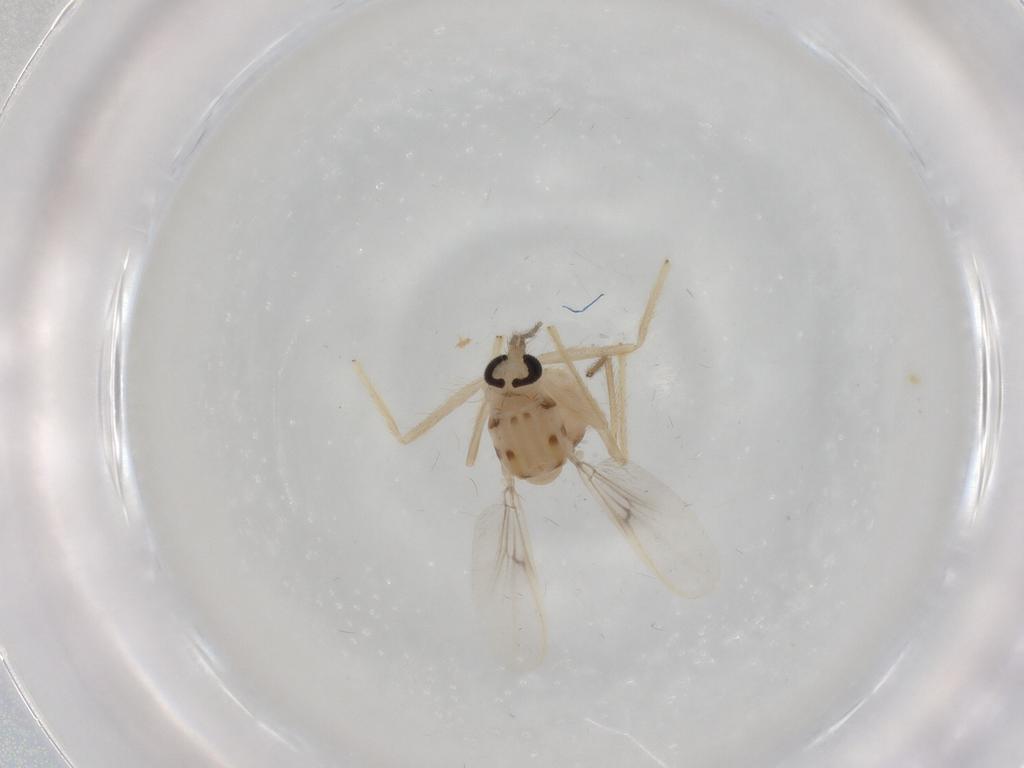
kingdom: Animalia
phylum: Arthropoda
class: Insecta
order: Diptera
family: Chironomidae
